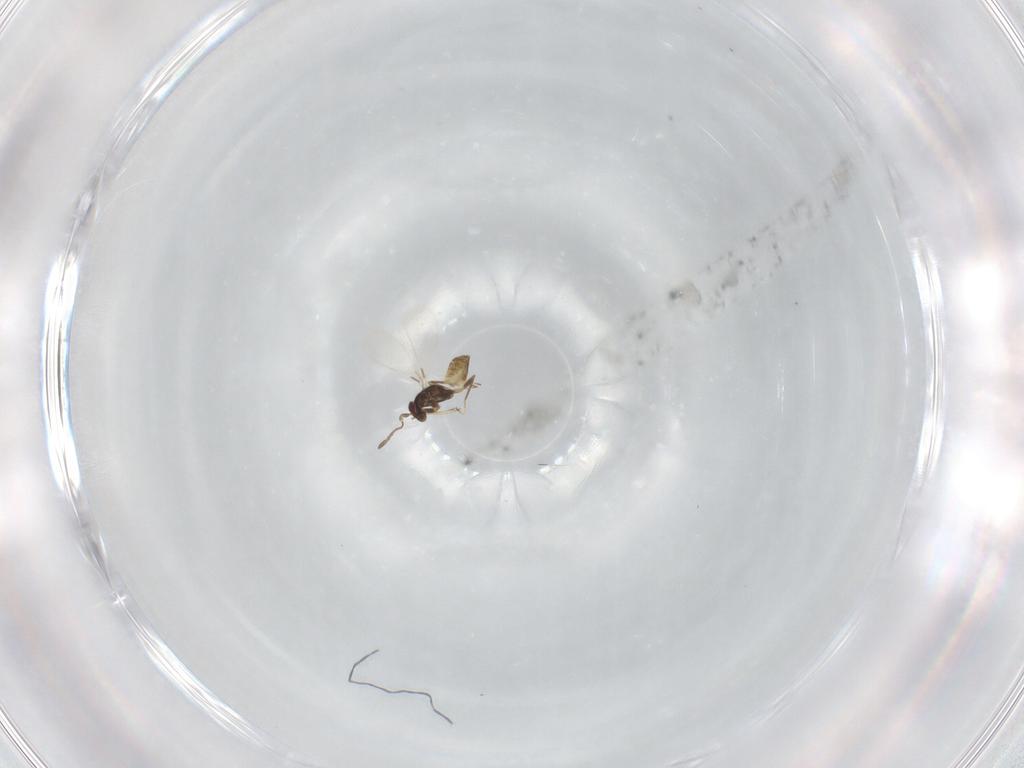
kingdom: Animalia
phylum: Arthropoda
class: Insecta
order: Hymenoptera
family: Mymaridae
